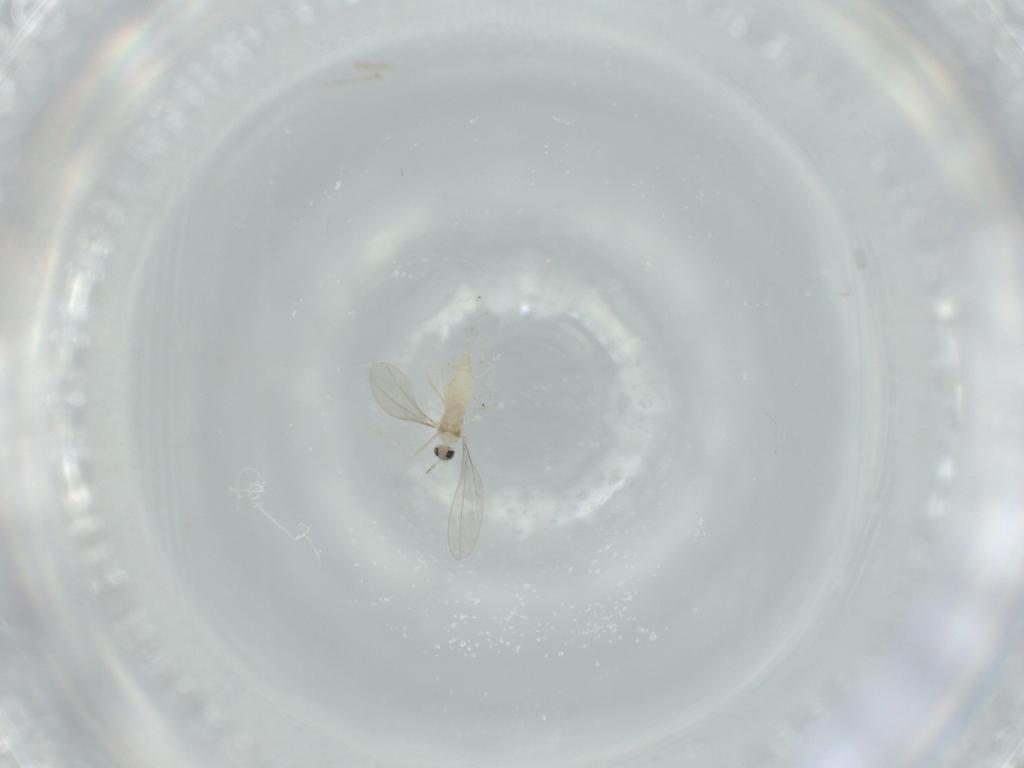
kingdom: Animalia
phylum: Arthropoda
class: Insecta
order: Diptera
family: Cecidomyiidae
